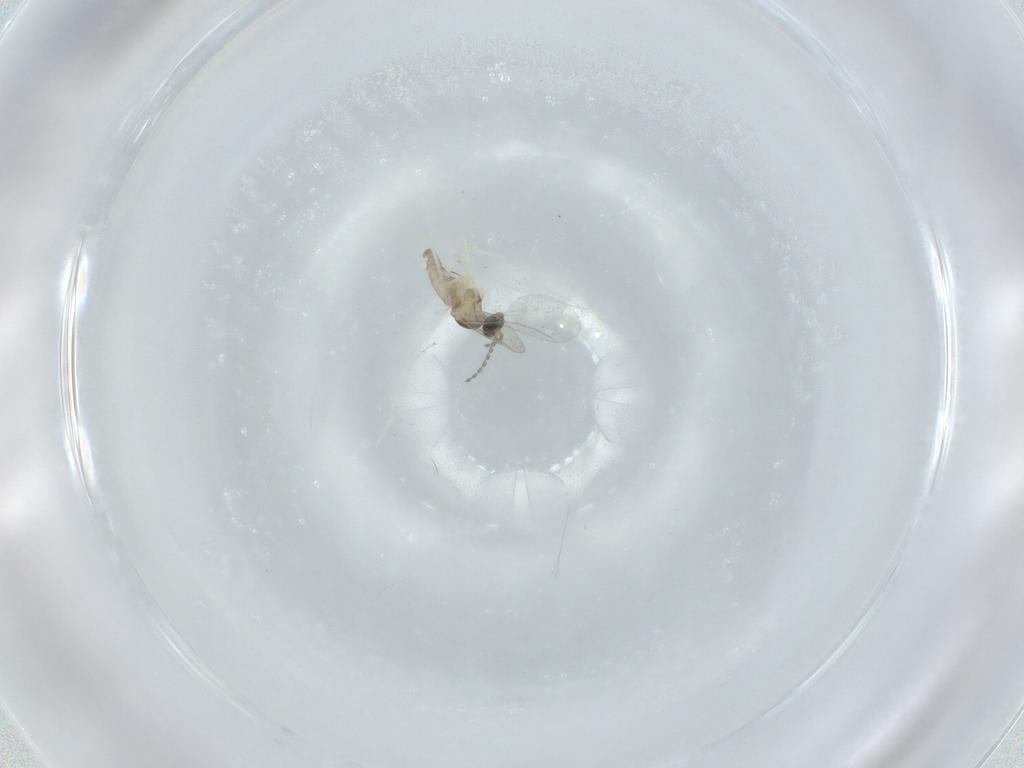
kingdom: Animalia
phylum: Arthropoda
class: Insecta
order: Diptera
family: Cecidomyiidae
